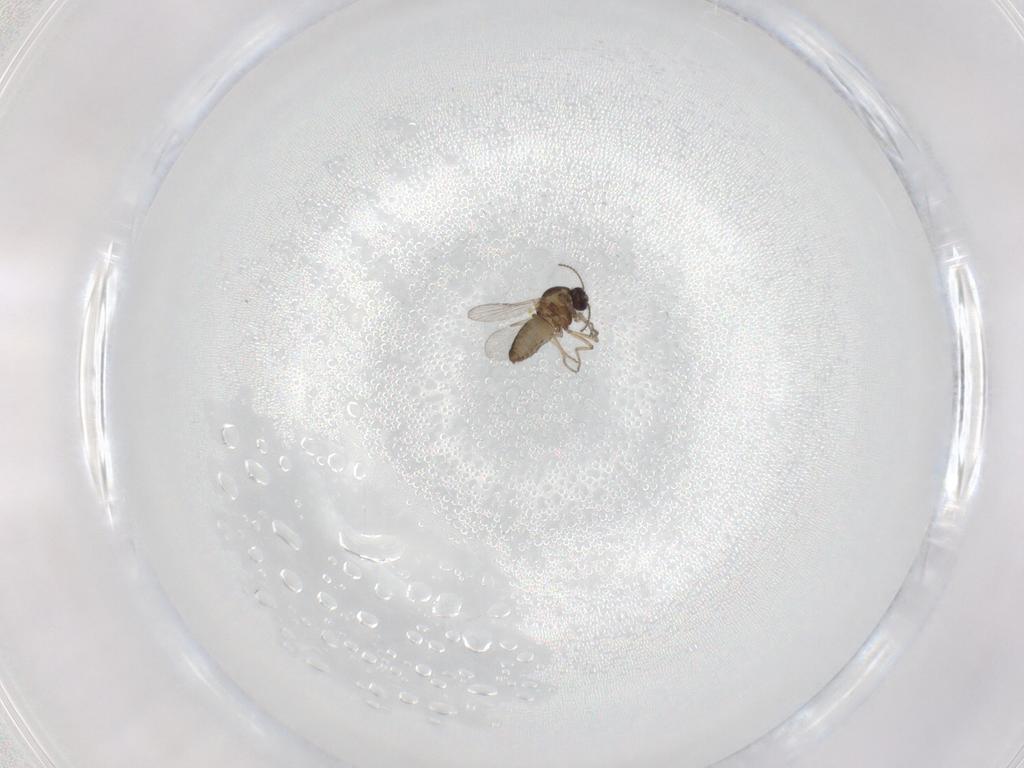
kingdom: Animalia
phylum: Arthropoda
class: Insecta
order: Diptera
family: Ceratopogonidae
